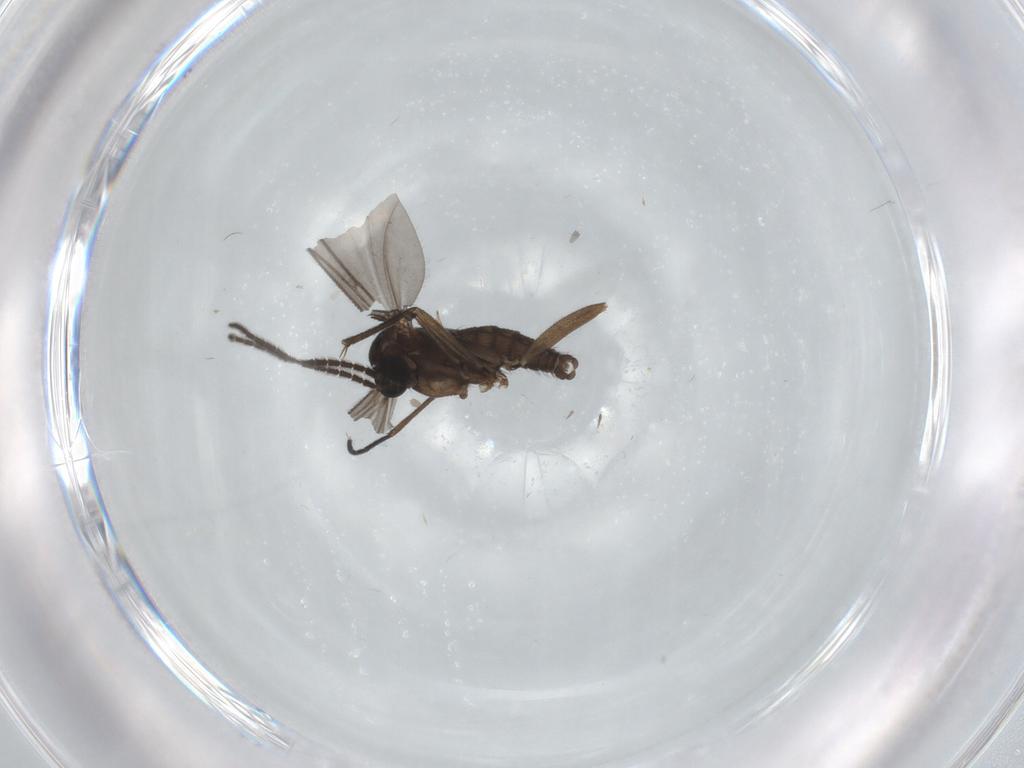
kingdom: Animalia
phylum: Arthropoda
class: Insecta
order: Diptera
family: Sciaridae
